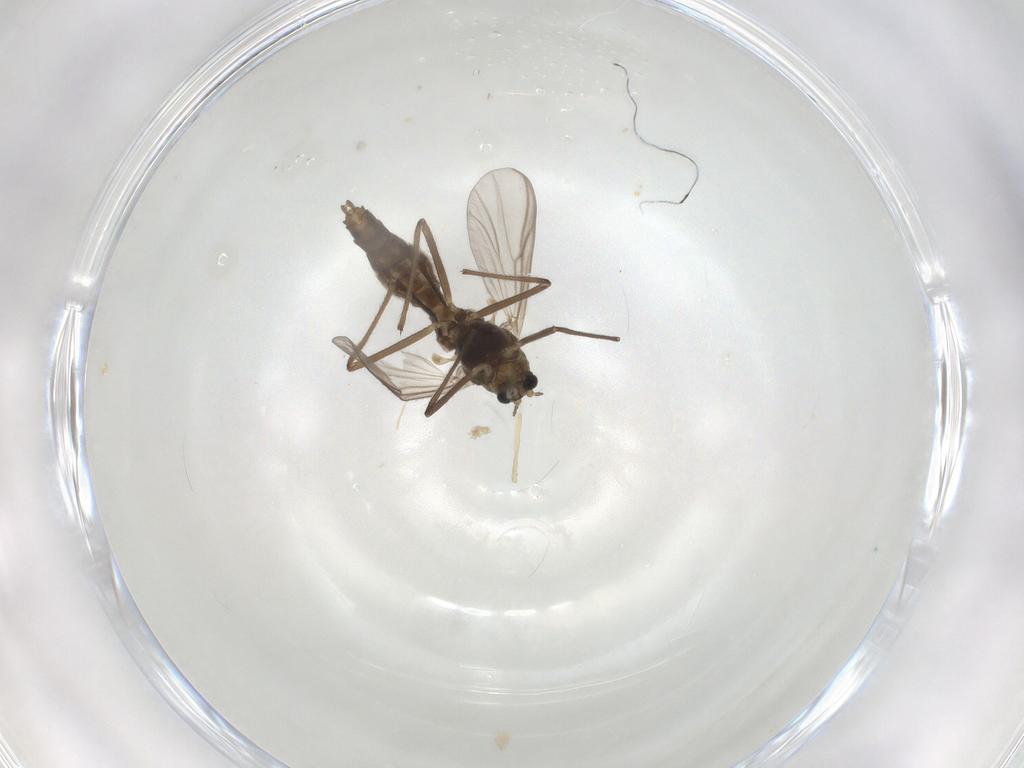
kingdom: Animalia
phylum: Arthropoda
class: Insecta
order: Diptera
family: Chironomidae
